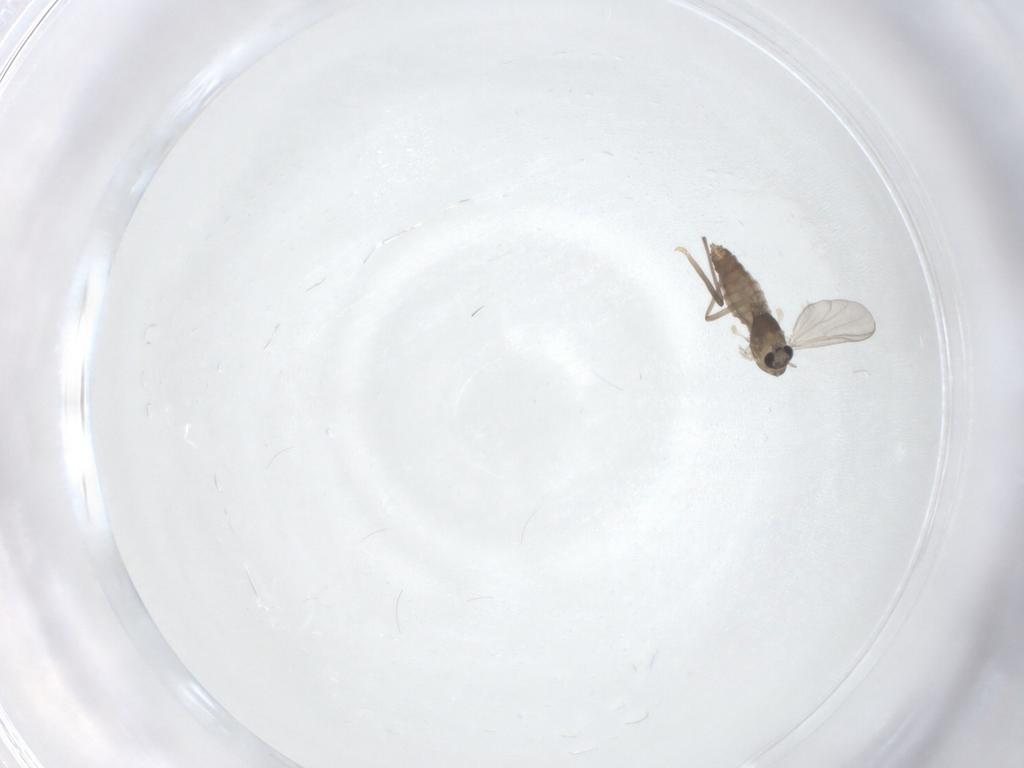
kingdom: Animalia
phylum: Arthropoda
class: Insecta
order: Diptera
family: Chironomidae
